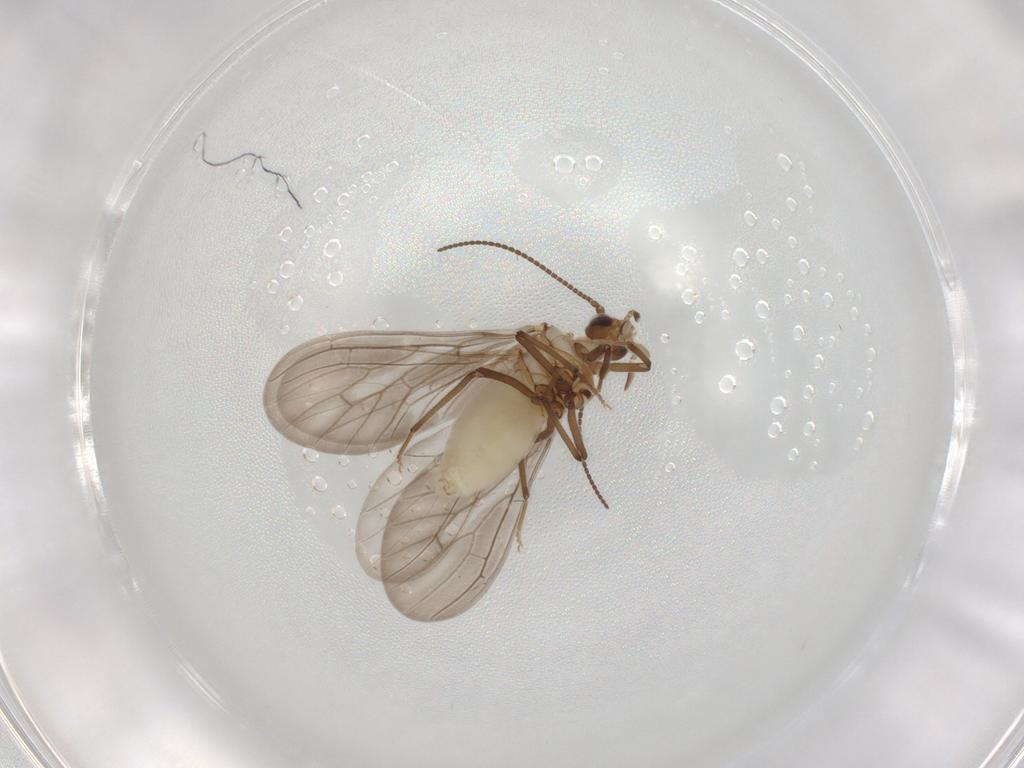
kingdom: Animalia
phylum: Arthropoda
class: Insecta
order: Neuroptera
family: Coniopterygidae
